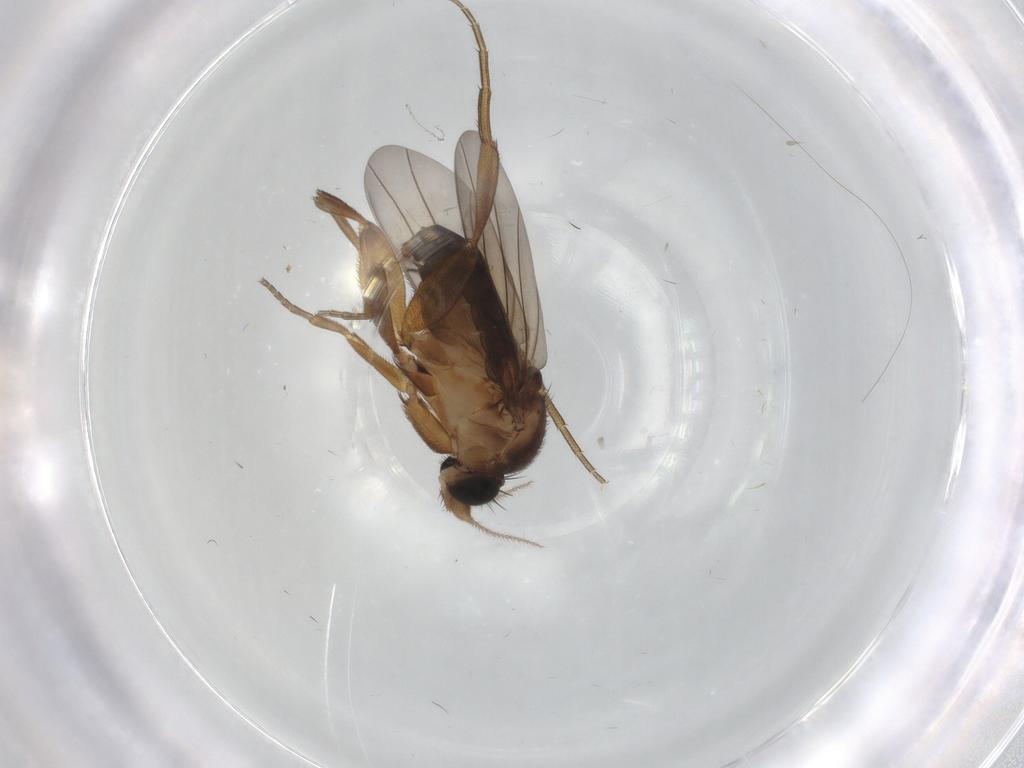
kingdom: Animalia
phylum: Arthropoda
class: Insecta
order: Diptera
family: Phoridae
